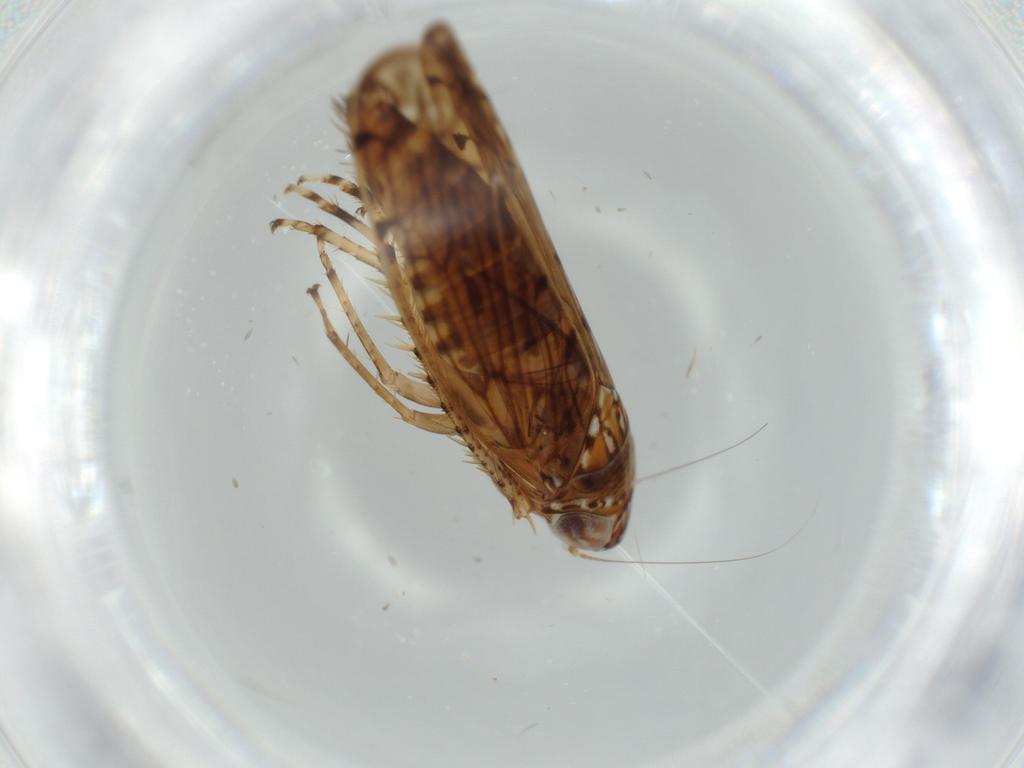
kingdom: Animalia
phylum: Arthropoda
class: Insecta
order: Hemiptera
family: Cicadellidae
